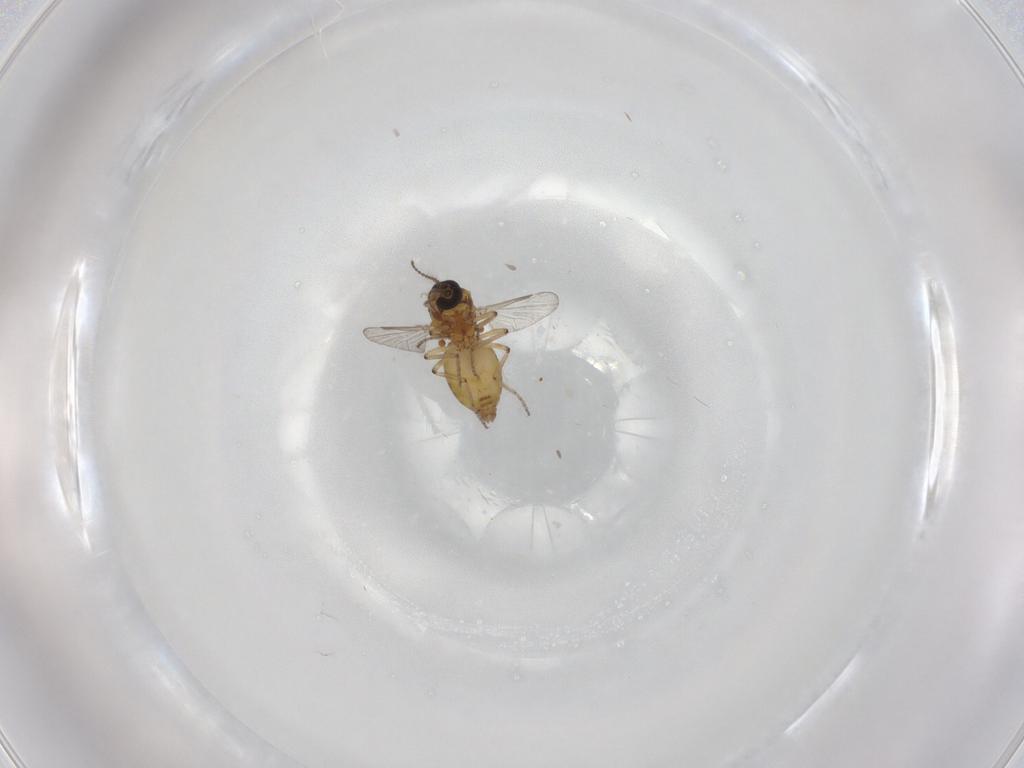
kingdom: Animalia
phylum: Arthropoda
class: Insecta
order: Diptera
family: Ceratopogonidae
